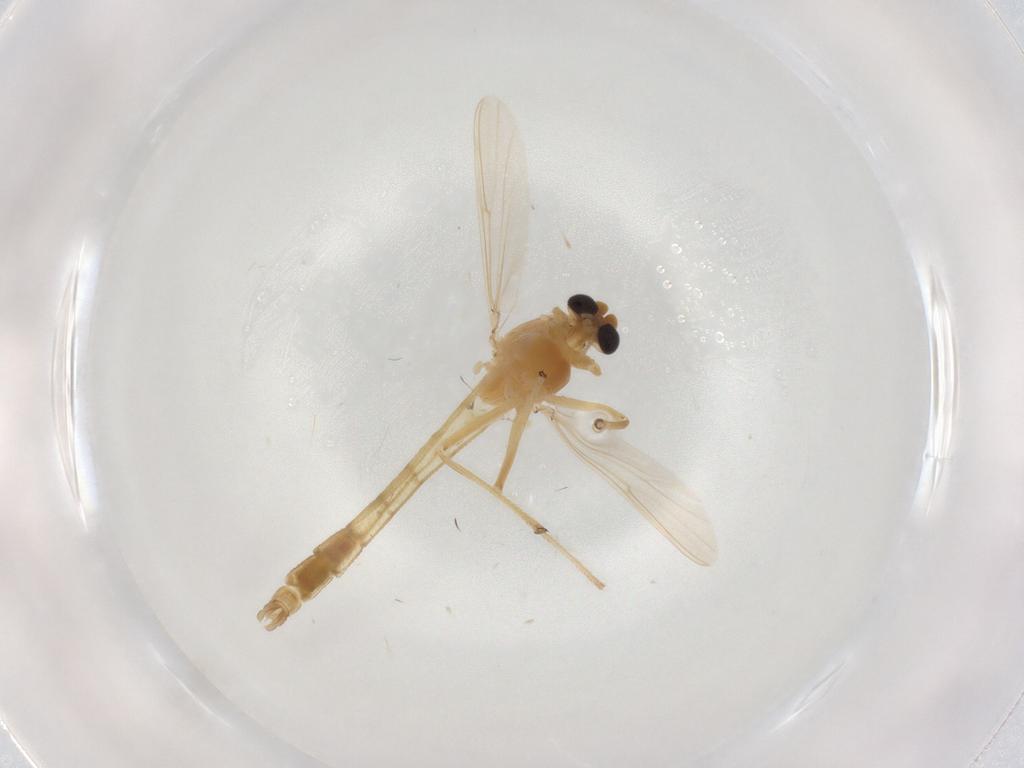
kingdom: Animalia
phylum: Arthropoda
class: Insecta
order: Diptera
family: Chironomidae
